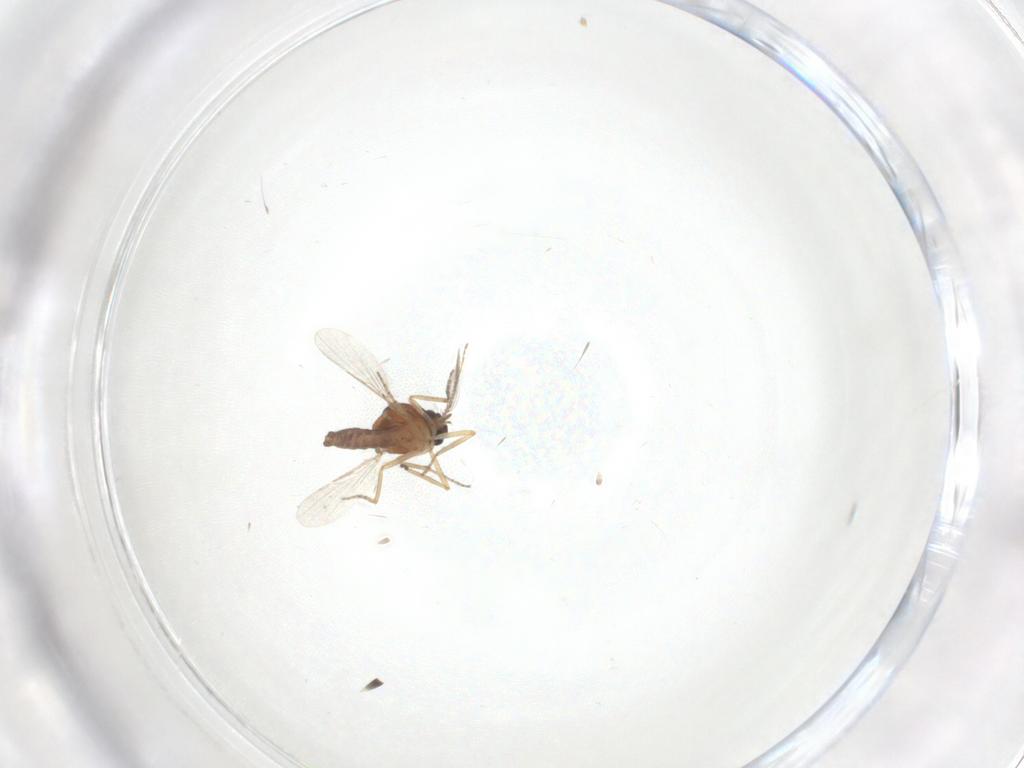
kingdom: Animalia
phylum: Arthropoda
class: Insecta
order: Diptera
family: Ceratopogonidae
